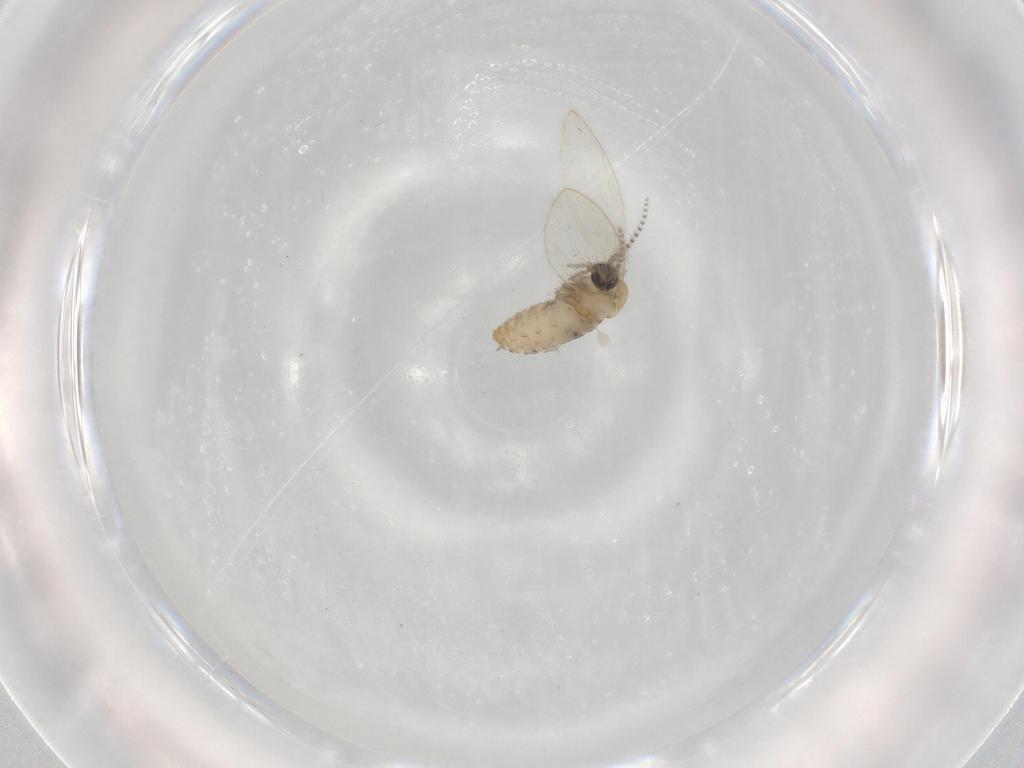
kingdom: Animalia
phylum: Arthropoda
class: Insecta
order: Diptera
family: Psychodidae
